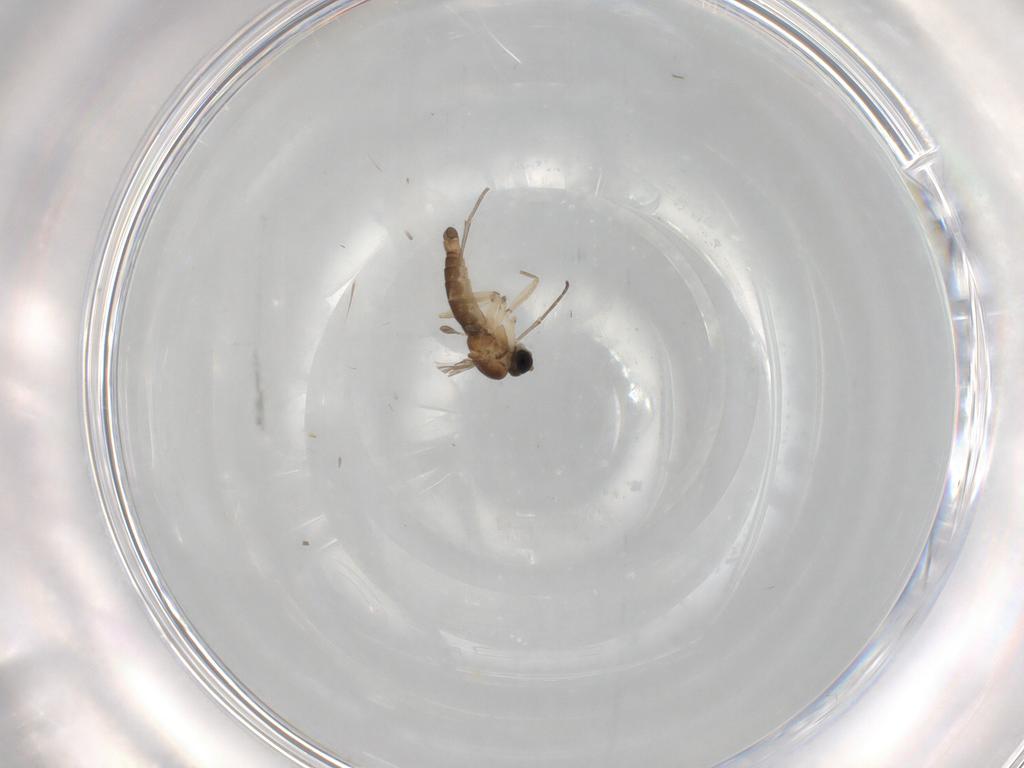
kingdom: Animalia
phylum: Arthropoda
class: Insecta
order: Diptera
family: Sciaridae
